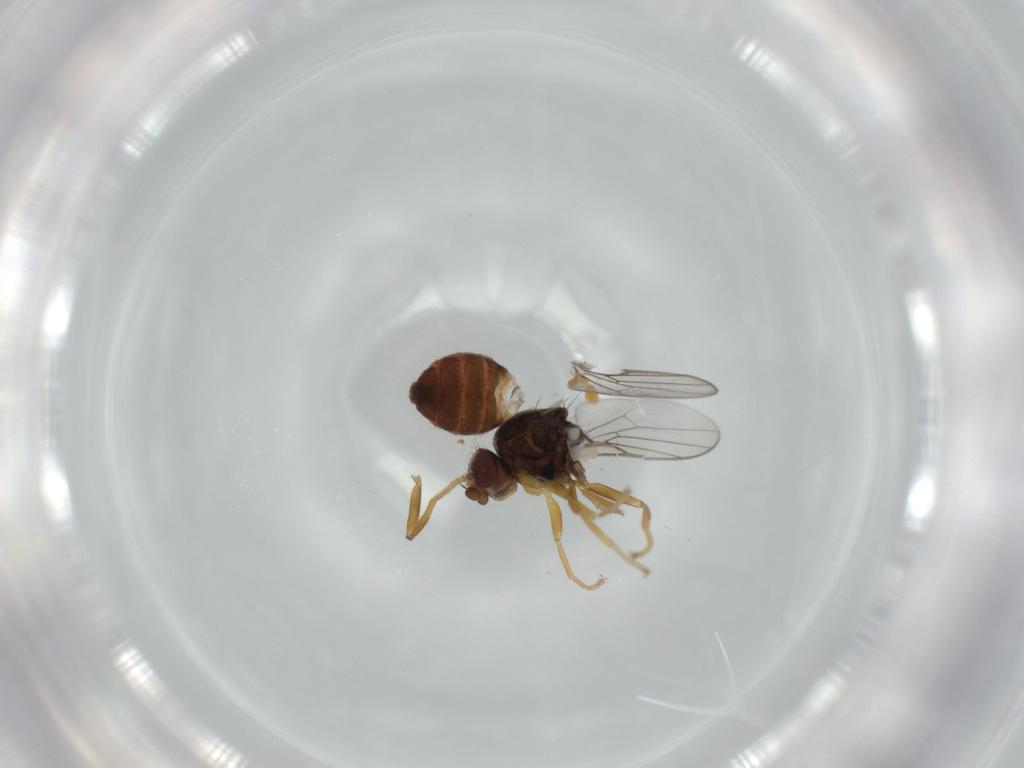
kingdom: Animalia
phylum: Arthropoda
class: Insecta
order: Diptera
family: Chloropidae
